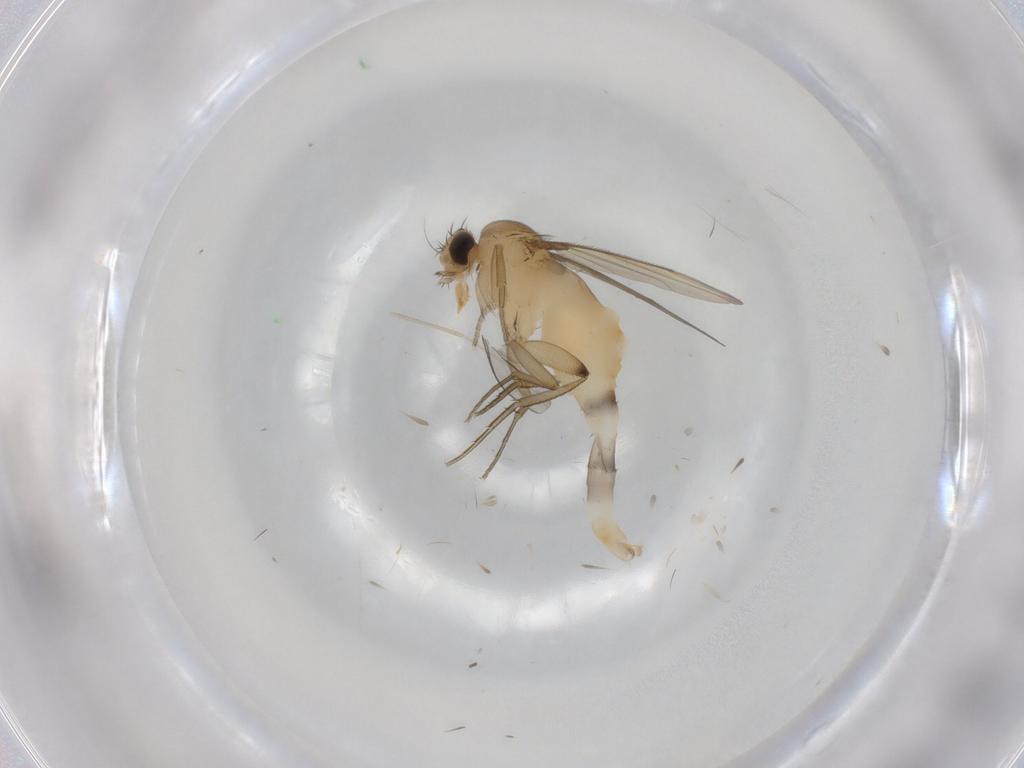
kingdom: Animalia
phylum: Arthropoda
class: Insecta
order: Diptera
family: Phoridae
